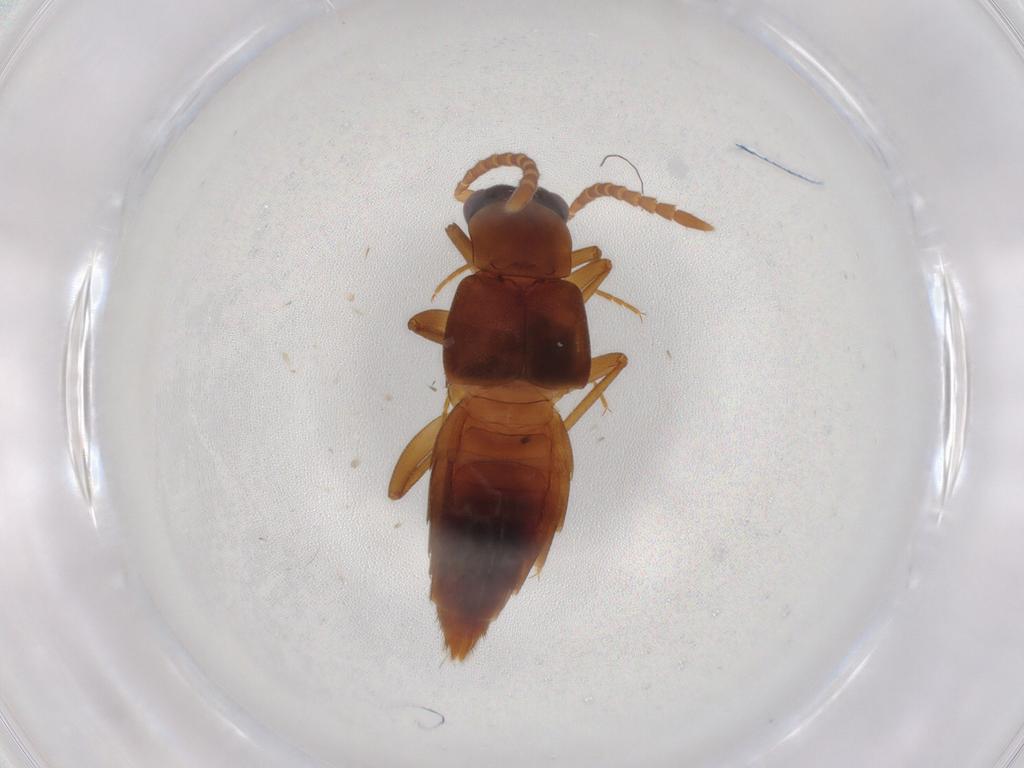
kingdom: Animalia
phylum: Arthropoda
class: Insecta
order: Coleoptera
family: Staphylinidae
